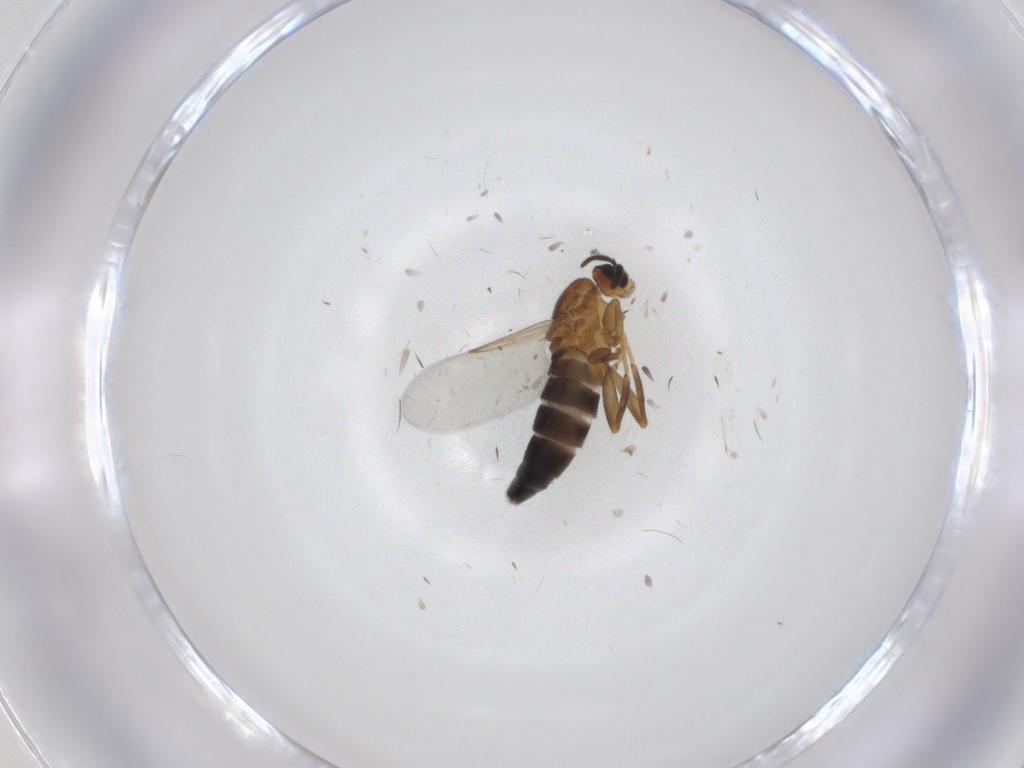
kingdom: Animalia
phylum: Arthropoda
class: Insecta
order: Diptera
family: Scatopsidae
